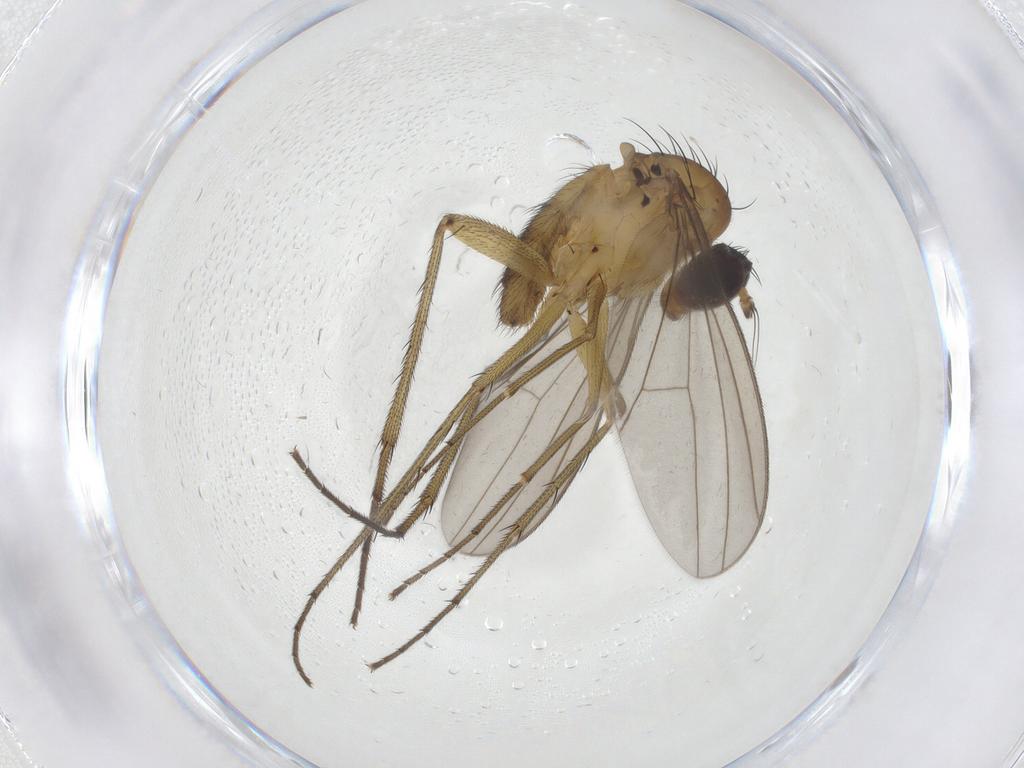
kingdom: Animalia
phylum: Arthropoda
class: Insecta
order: Diptera
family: Dolichopodidae
